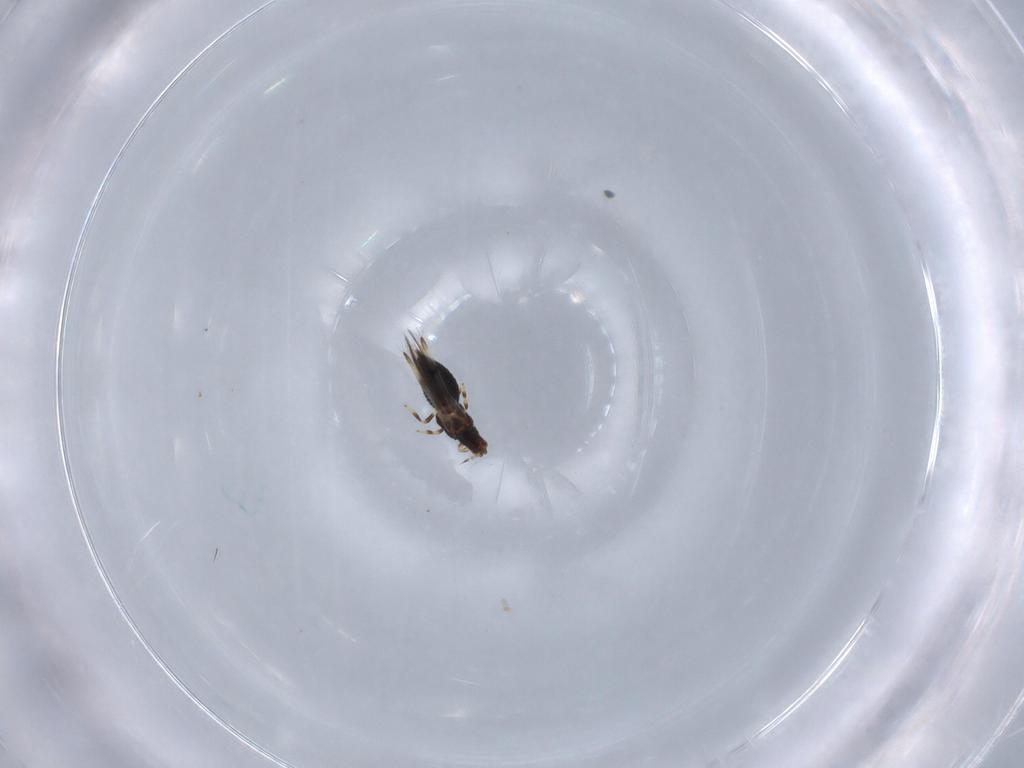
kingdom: Animalia
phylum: Arthropoda
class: Insecta
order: Thysanoptera
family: Thripidae
